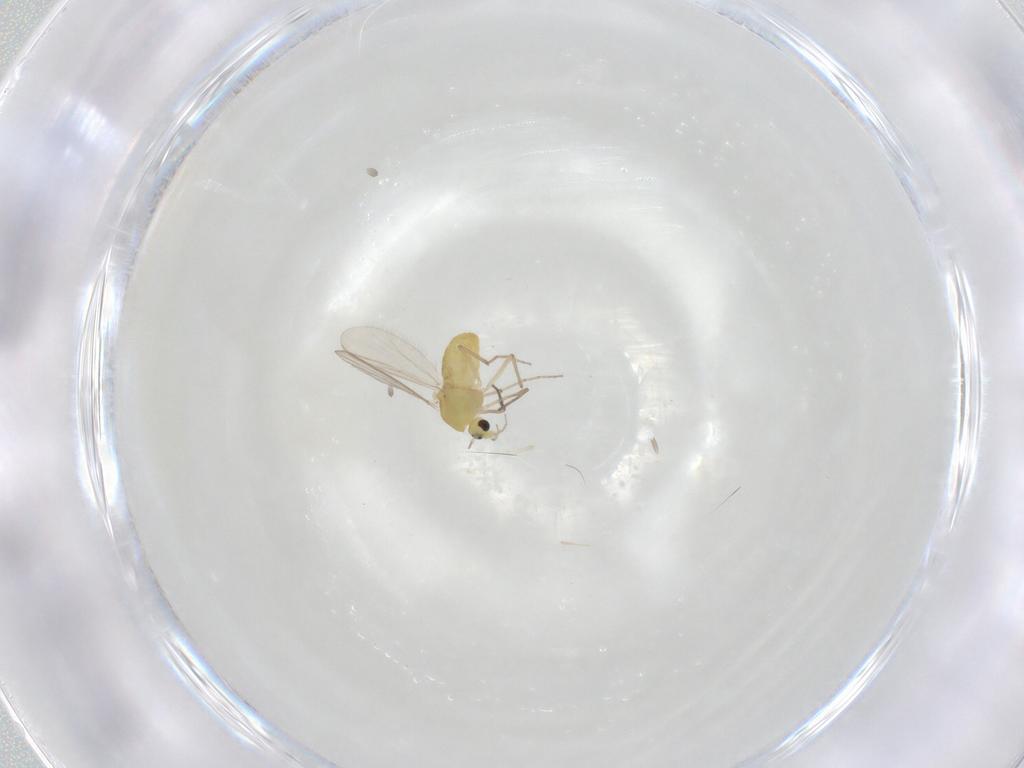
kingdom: Animalia
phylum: Arthropoda
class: Insecta
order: Diptera
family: Chironomidae
